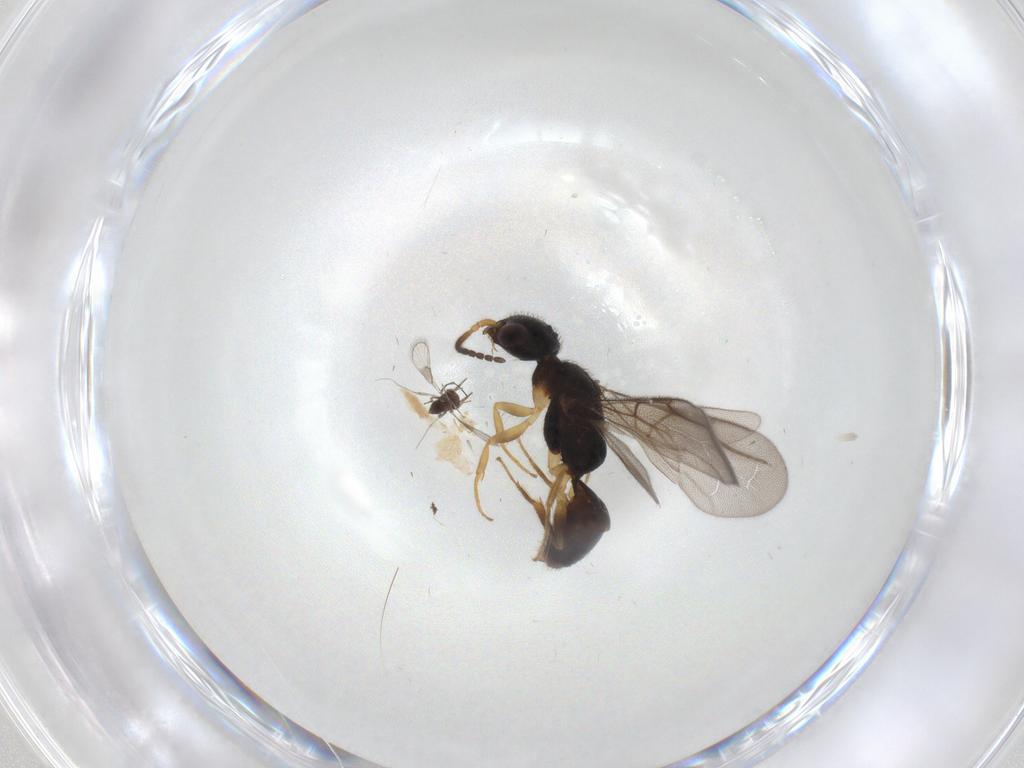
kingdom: Animalia
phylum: Arthropoda
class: Insecta
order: Hymenoptera
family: Bethylidae
